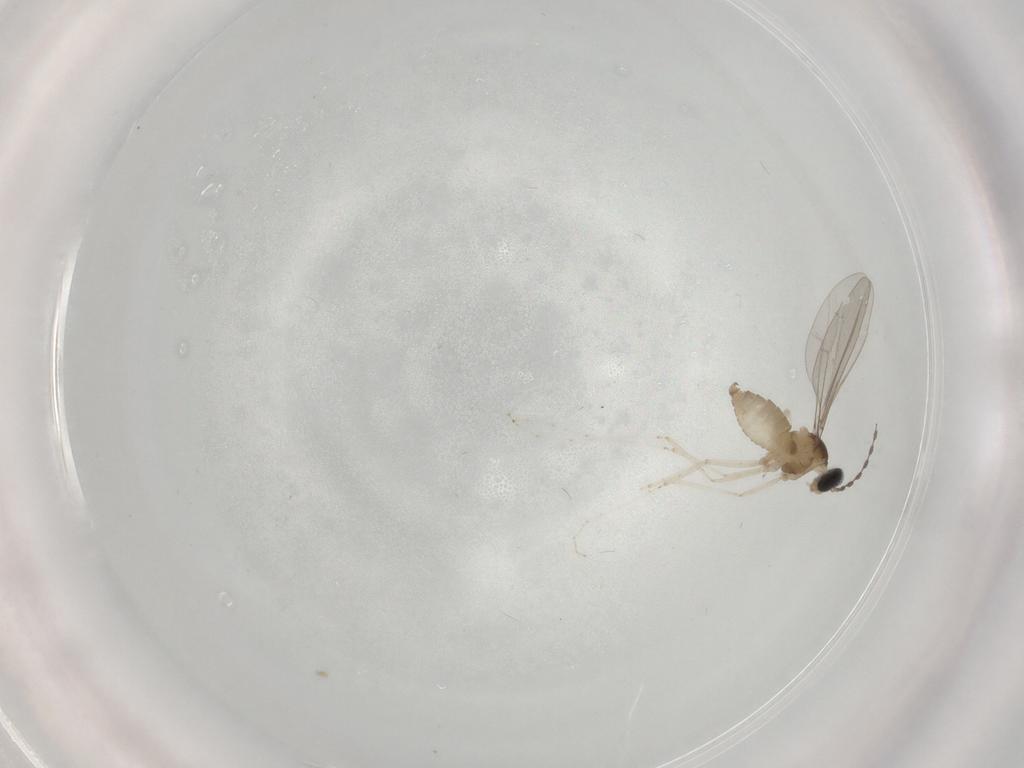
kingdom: Animalia
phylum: Arthropoda
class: Insecta
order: Diptera
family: Cecidomyiidae
